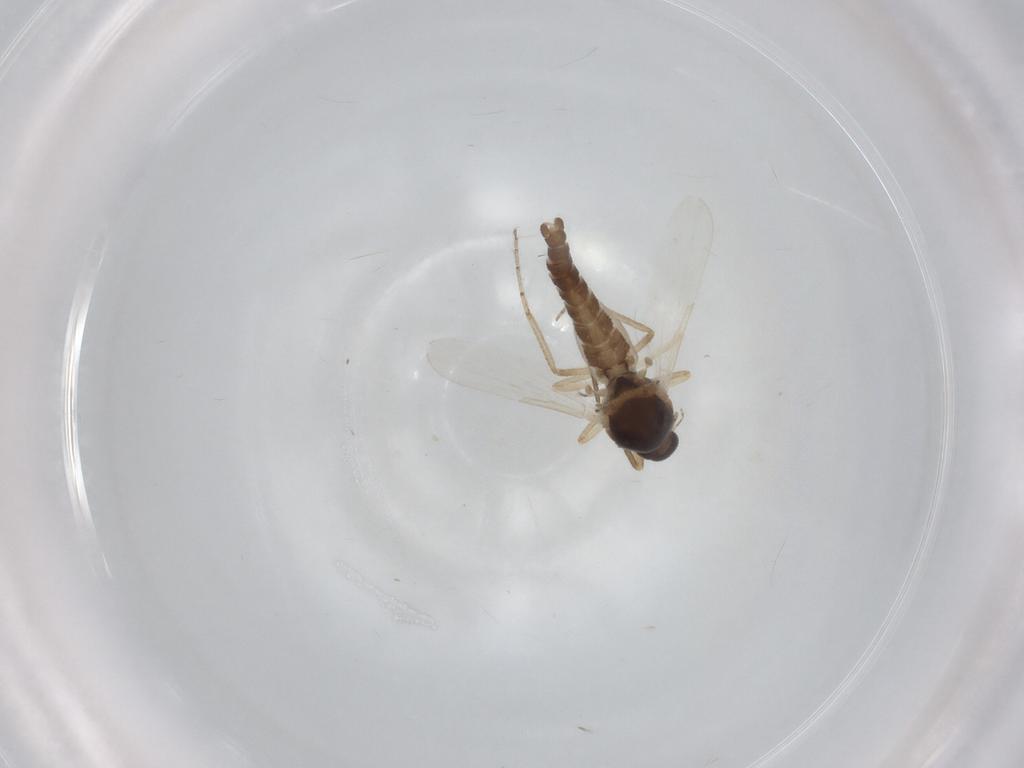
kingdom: Animalia
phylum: Arthropoda
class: Insecta
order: Diptera
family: Ceratopogonidae
